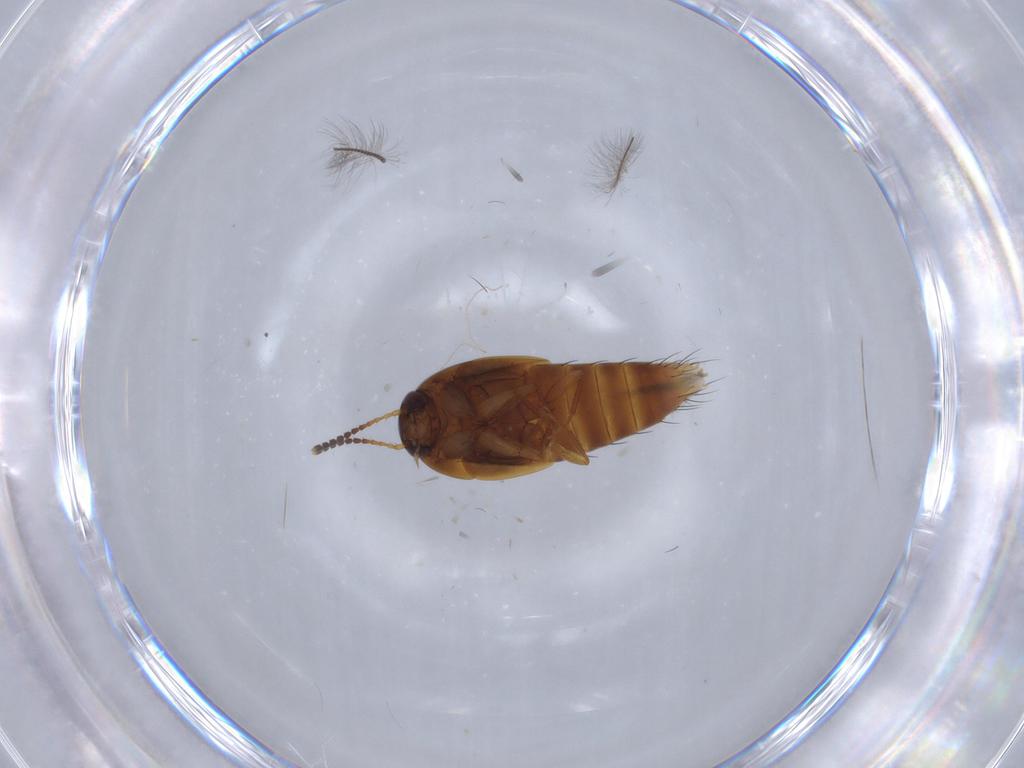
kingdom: Animalia
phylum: Arthropoda
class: Insecta
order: Coleoptera
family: Staphylinidae
